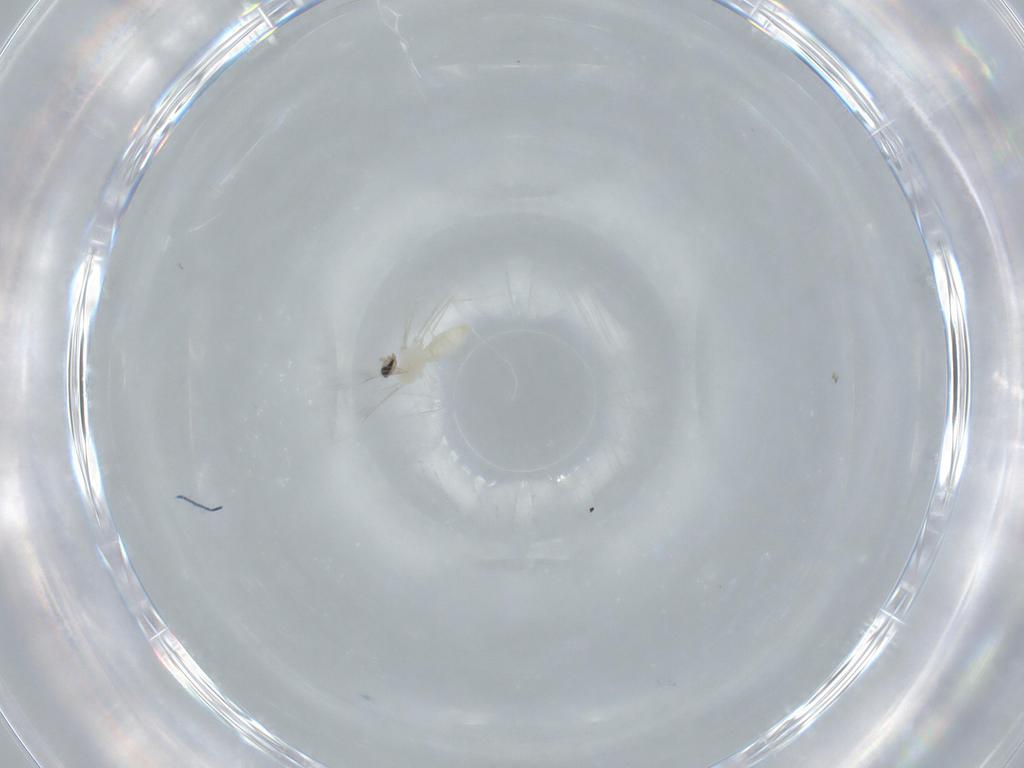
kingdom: Animalia
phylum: Arthropoda
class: Insecta
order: Diptera
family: Cecidomyiidae
